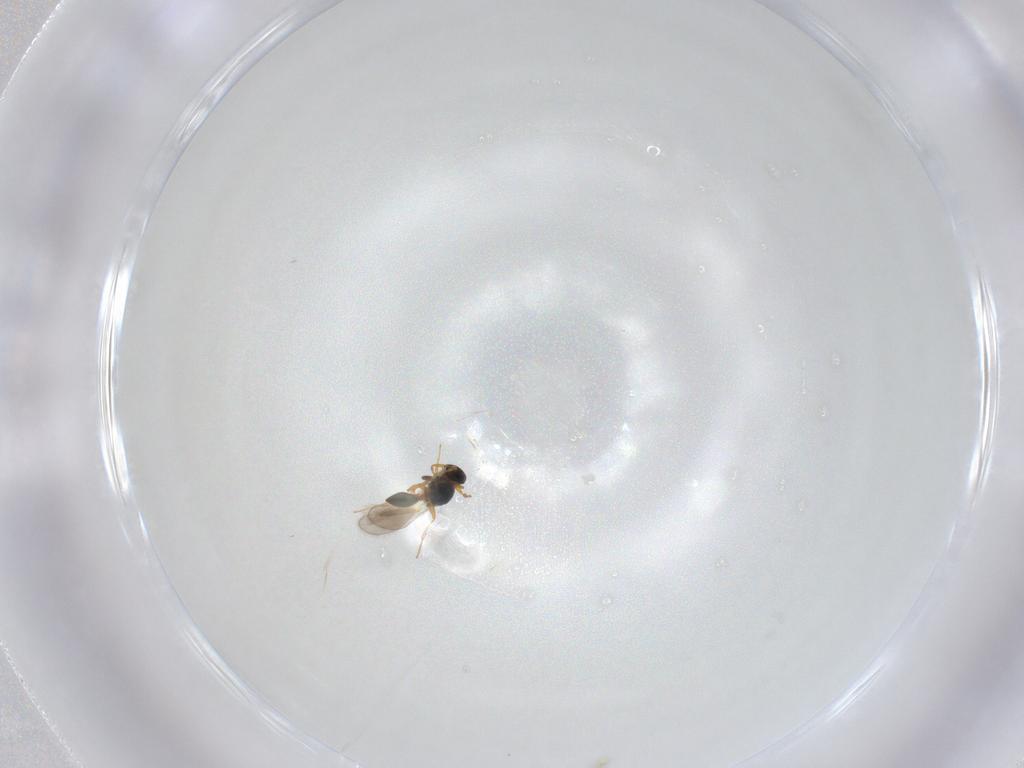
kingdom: Animalia
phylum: Arthropoda
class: Insecta
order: Hymenoptera
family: Platygastridae
